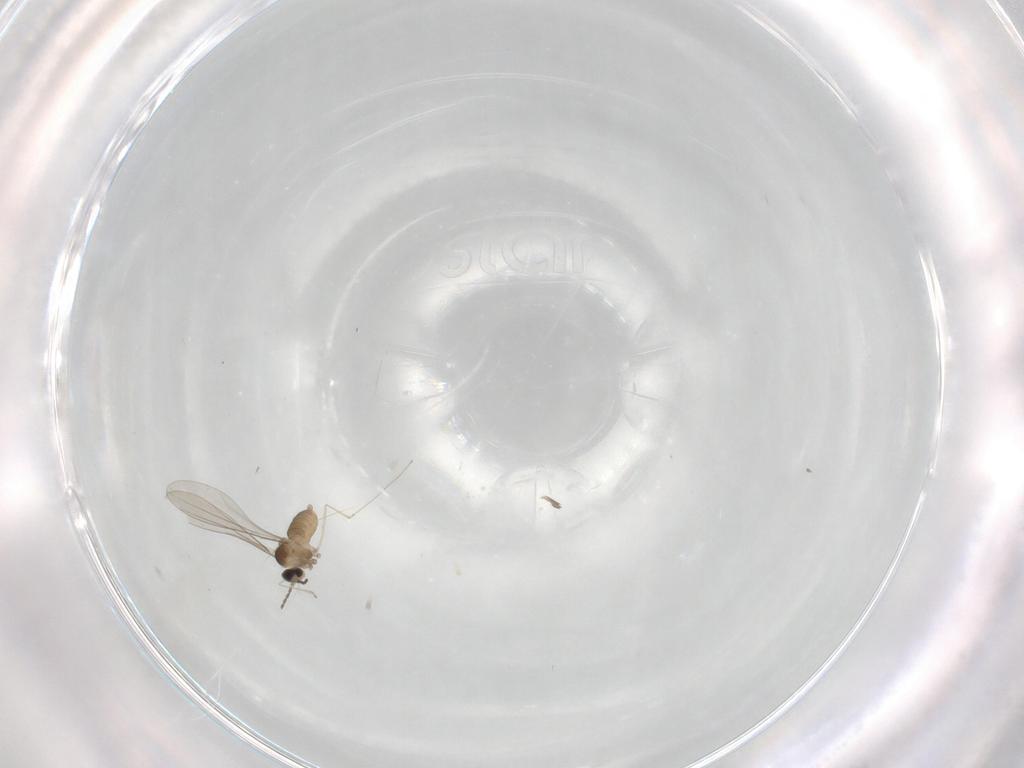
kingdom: Animalia
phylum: Arthropoda
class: Insecta
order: Diptera
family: Cecidomyiidae
